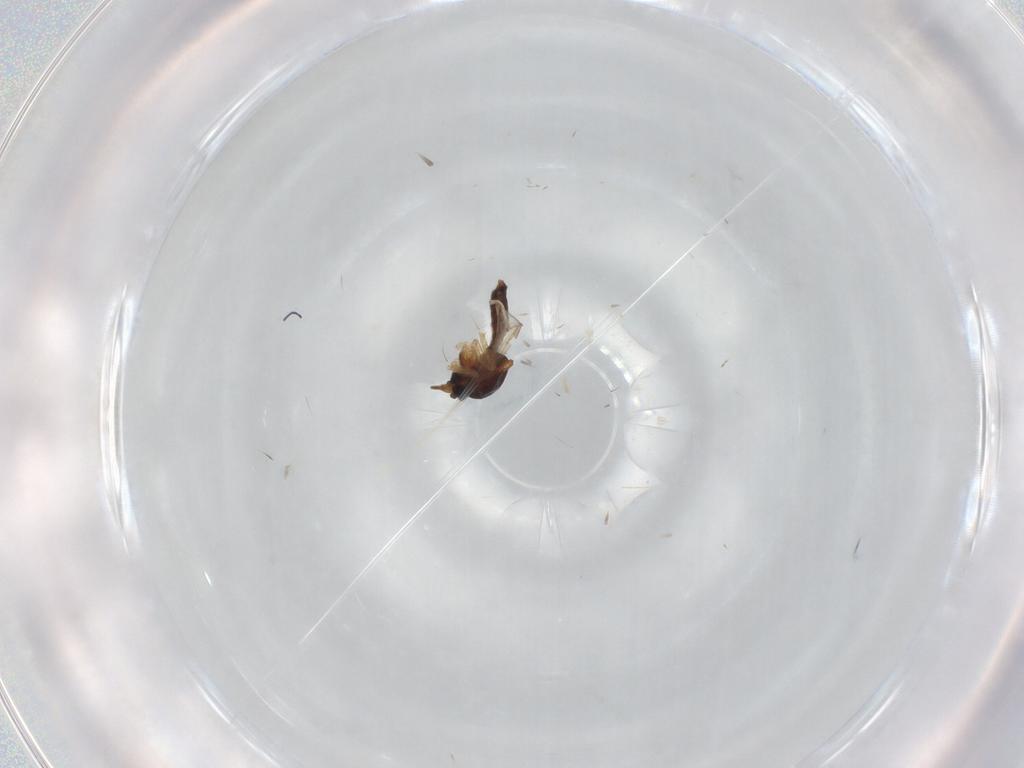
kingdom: Animalia
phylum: Arthropoda
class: Insecta
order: Diptera
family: Ceratopogonidae
